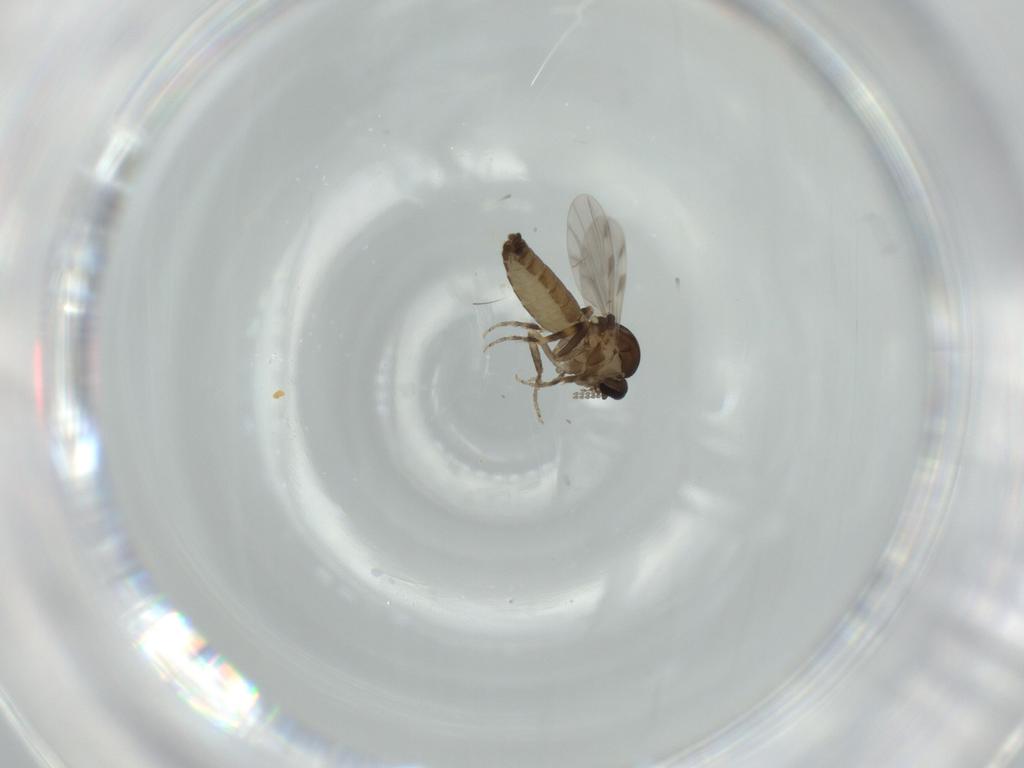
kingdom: Animalia
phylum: Arthropoda
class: Insecta
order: Diptera
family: Ceratopogonidae
